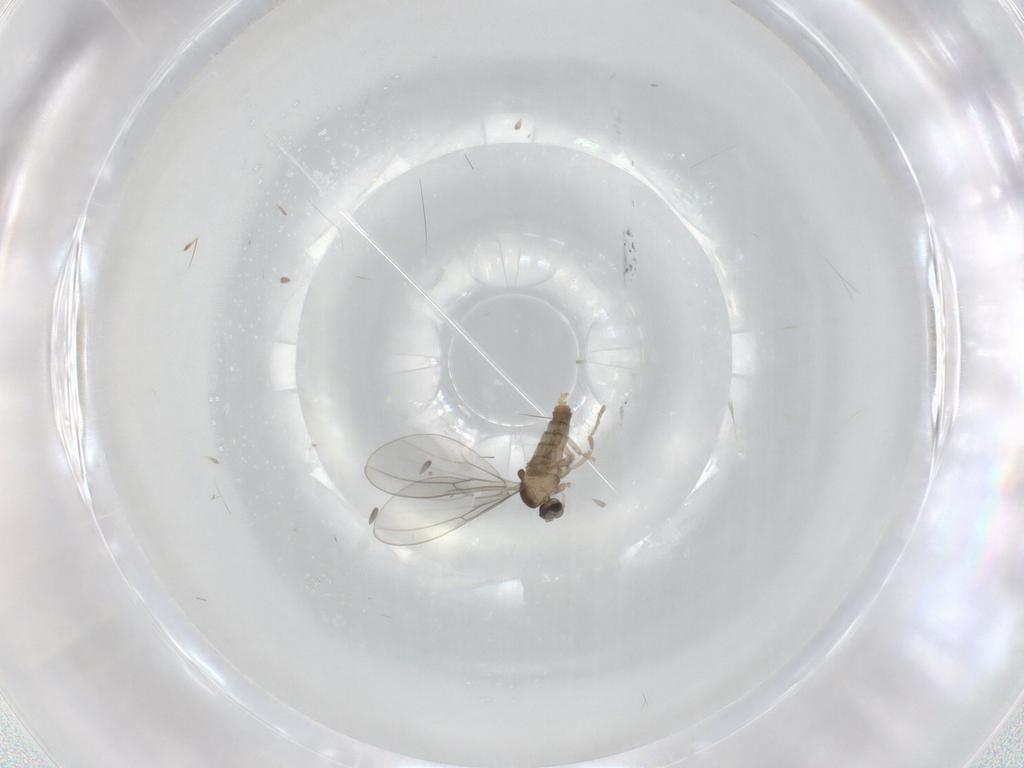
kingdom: Animalia
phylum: Arthropoda
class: Insecta
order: Diptera
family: Cecidomyiidae
